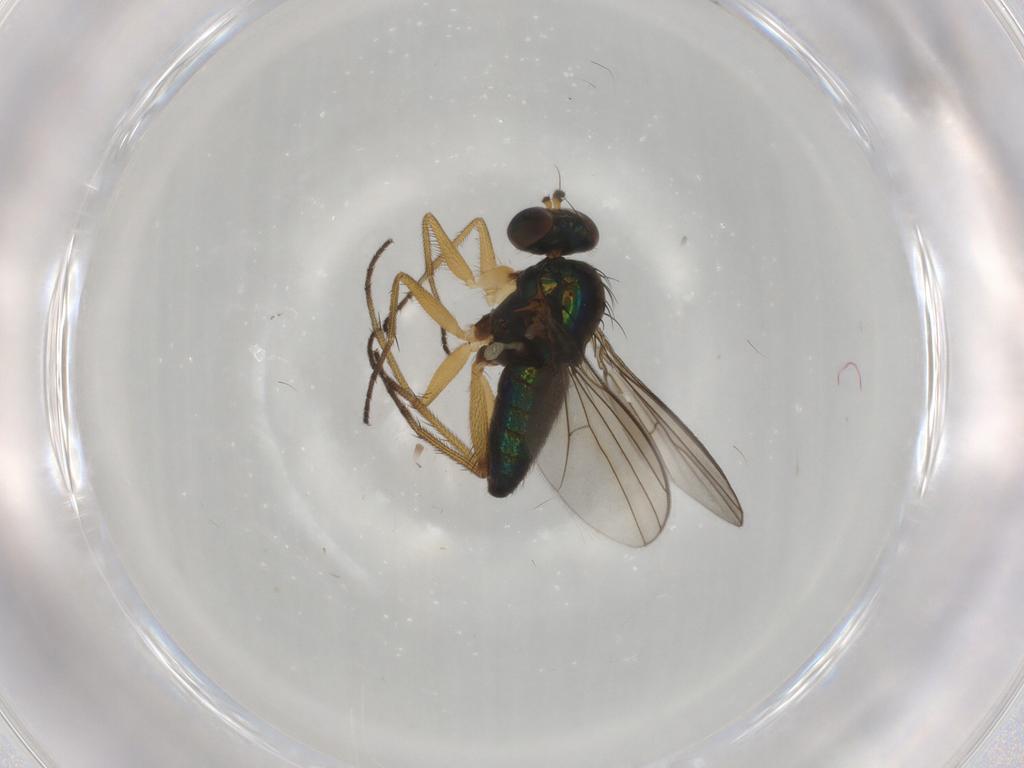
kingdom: Animalia
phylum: Arthropoda
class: Insecta
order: Diptera
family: Dolichopodidae
